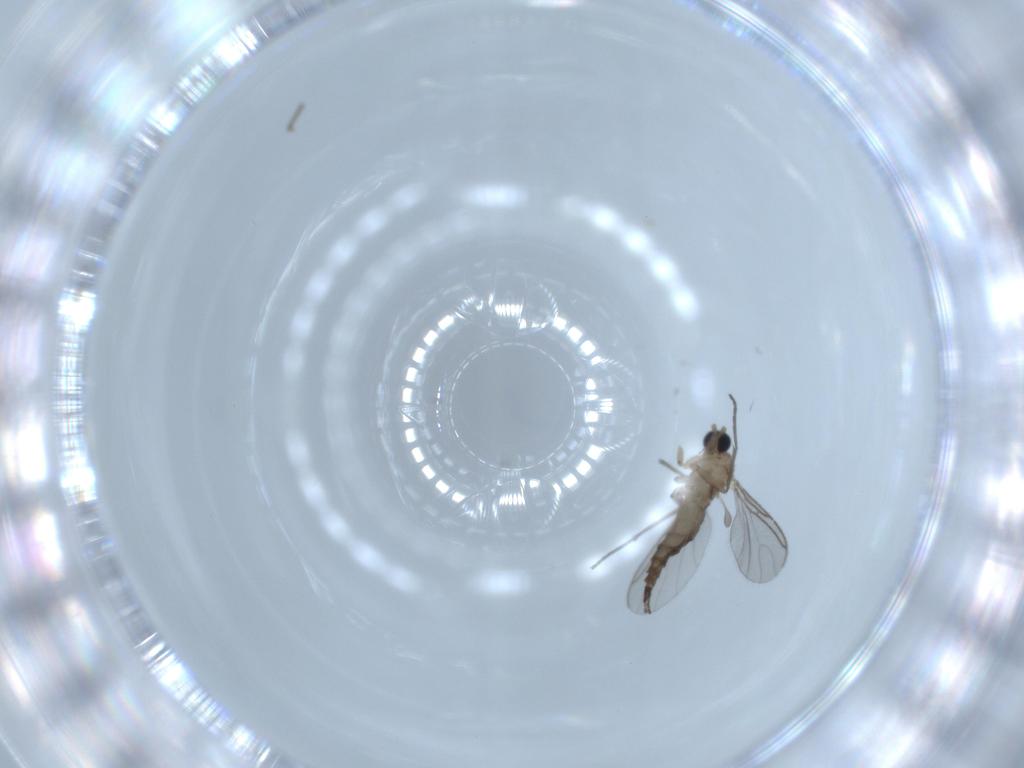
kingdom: Animalia
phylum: Arthropoda
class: Insecta
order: Diptera
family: Sciaridae
